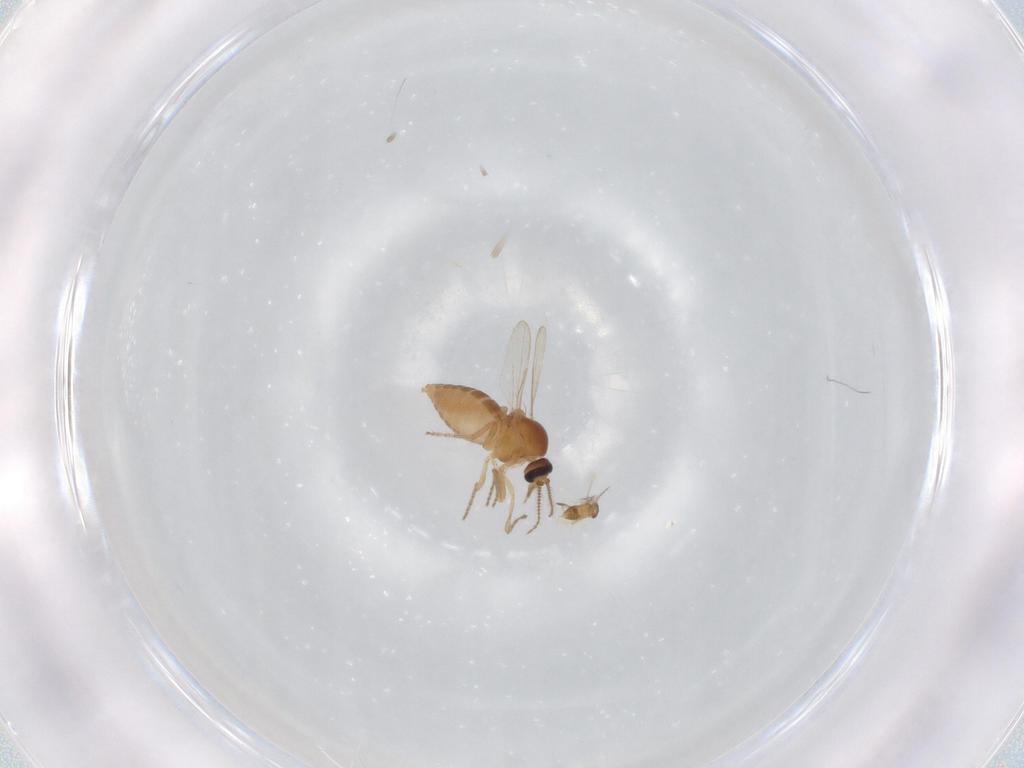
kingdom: Animalia
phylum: Arthropoda
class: Insecta
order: Diptera
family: Ceratopogonidae
